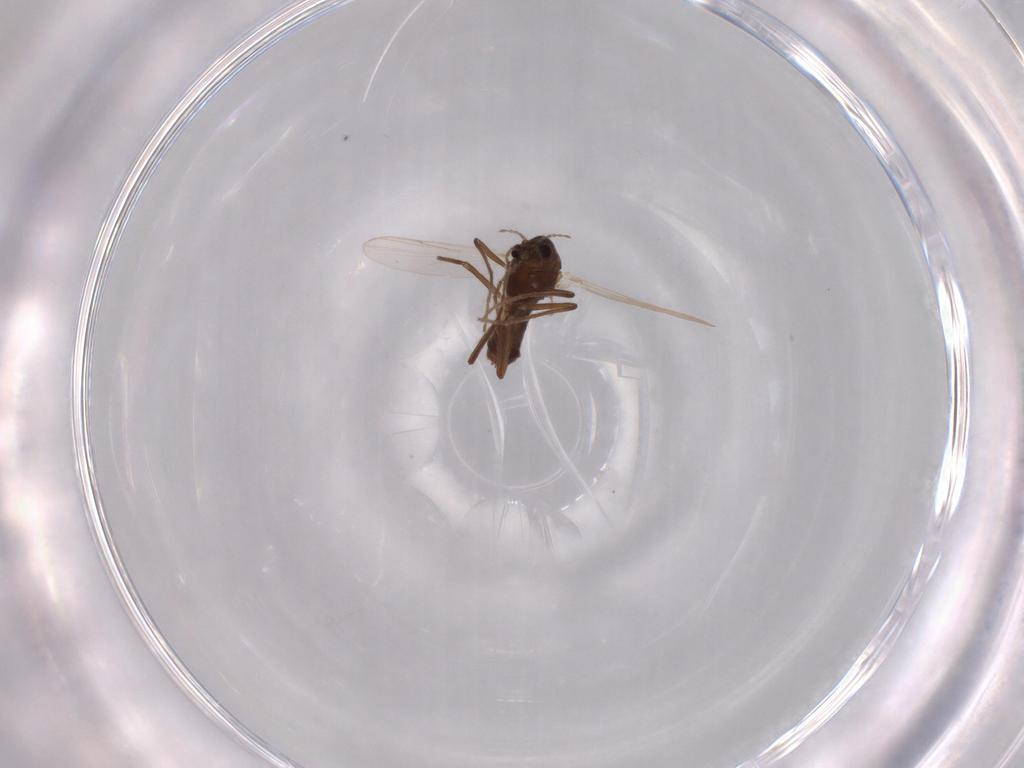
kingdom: Animalia
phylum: Arthropoda
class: Insecta
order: Diptera
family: Chironomidae
